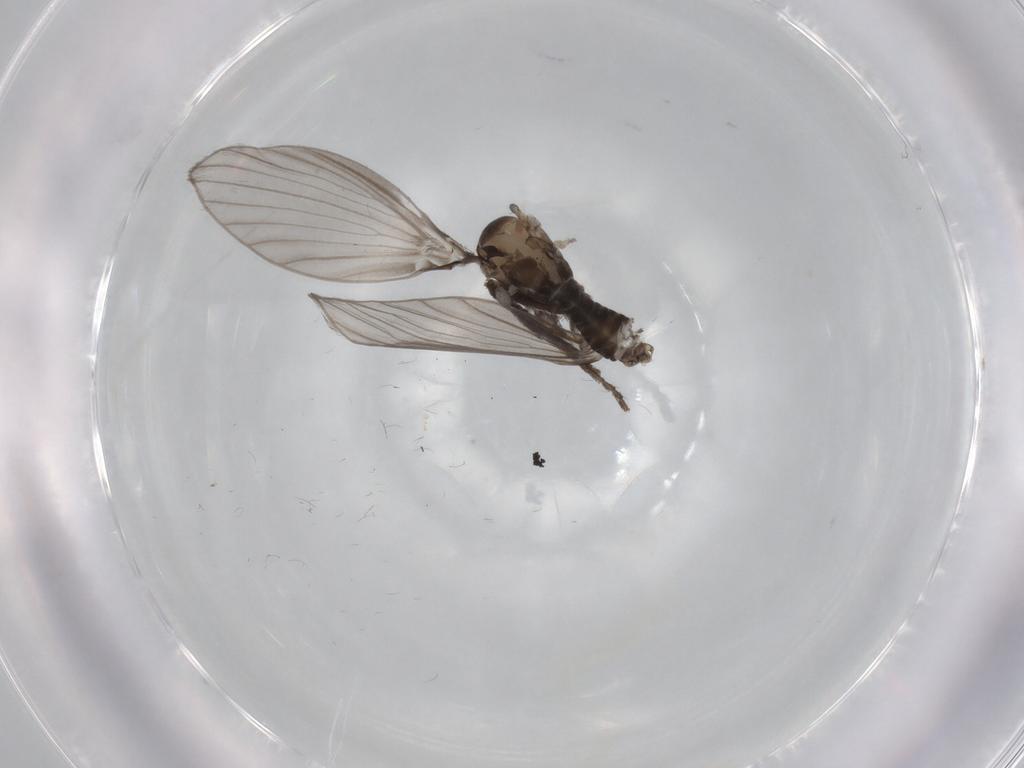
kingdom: Animalia
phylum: Arthropoda
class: Insecta
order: Diptera
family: Psychodidae
